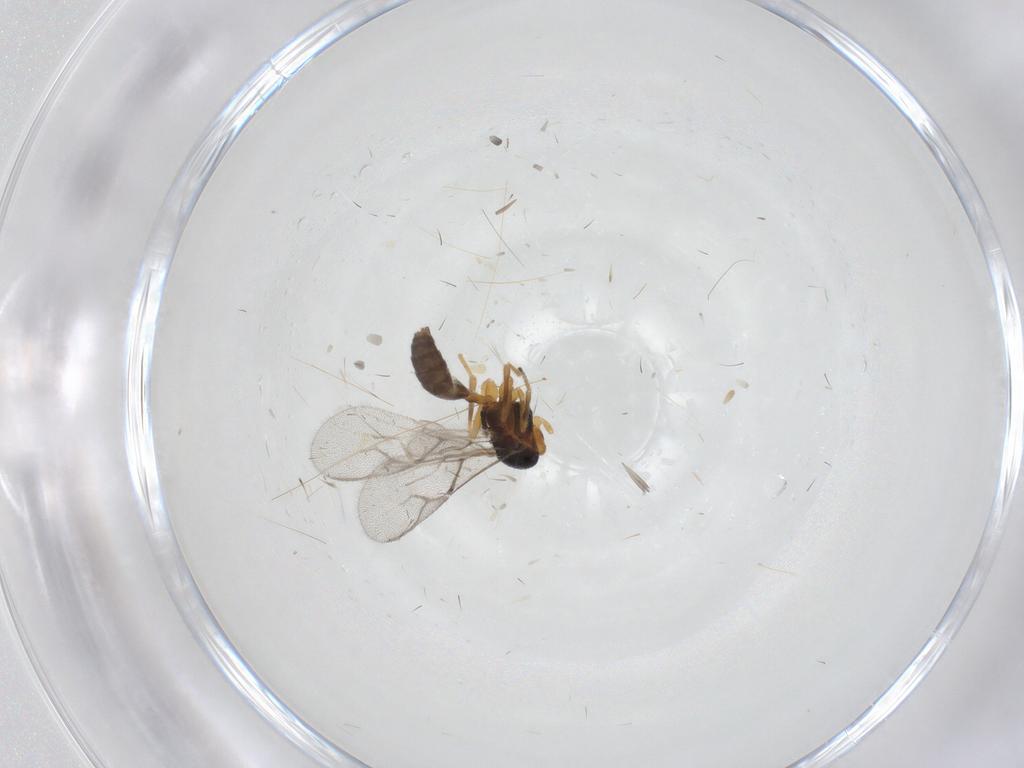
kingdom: Animalia
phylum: Arthropoda
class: Insecta
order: Hymenoptera
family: Braconidae
